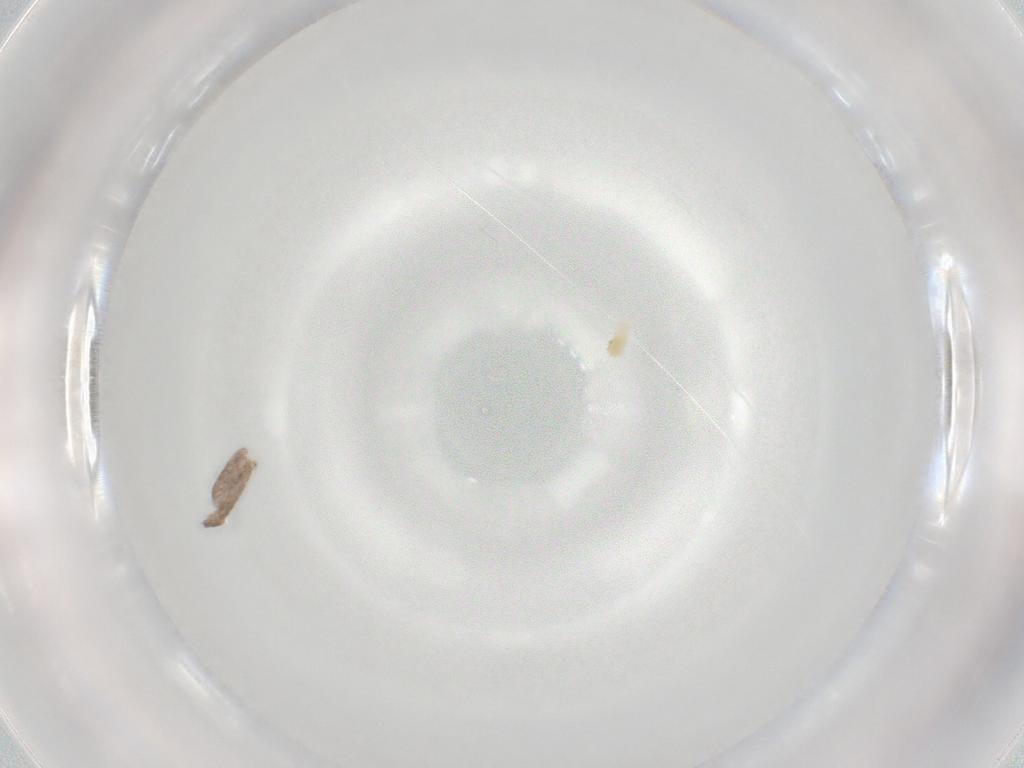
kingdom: Animalia
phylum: Arthropoda
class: Arachnida
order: Trombidiformes
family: Eupodidae
